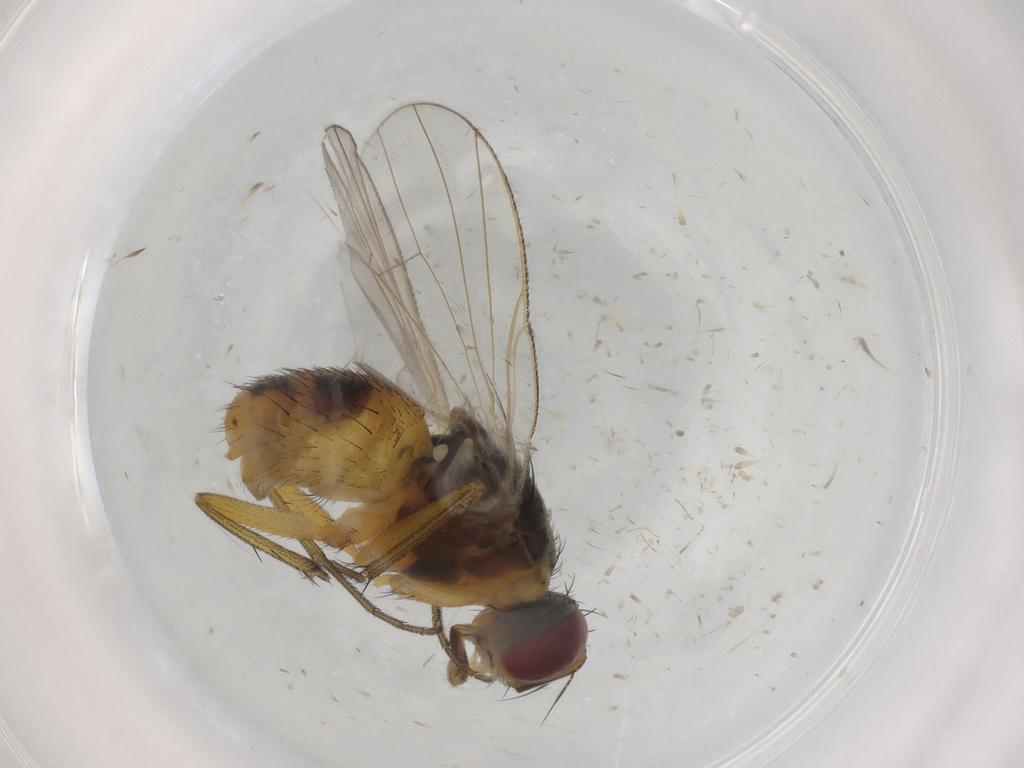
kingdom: Animalia
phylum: Arthropoda
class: Insecta
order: Diptera
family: Muscidae
